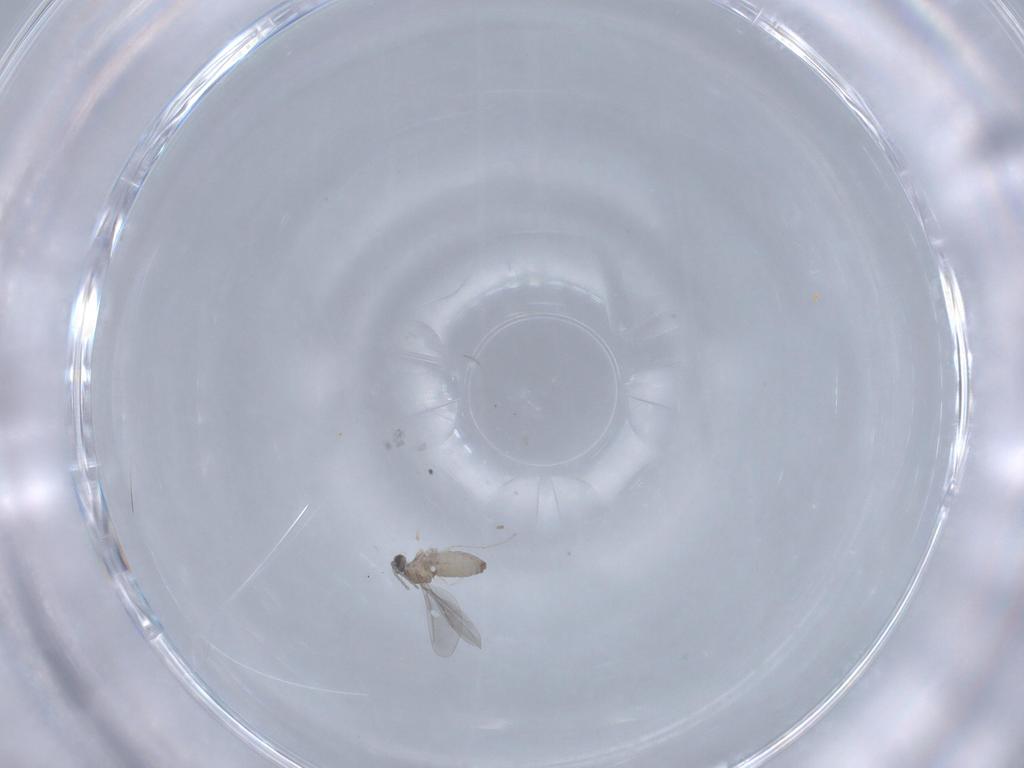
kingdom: Animalia
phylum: Arthropoda
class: Insecta
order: Diptera
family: Cecidomyiidae
